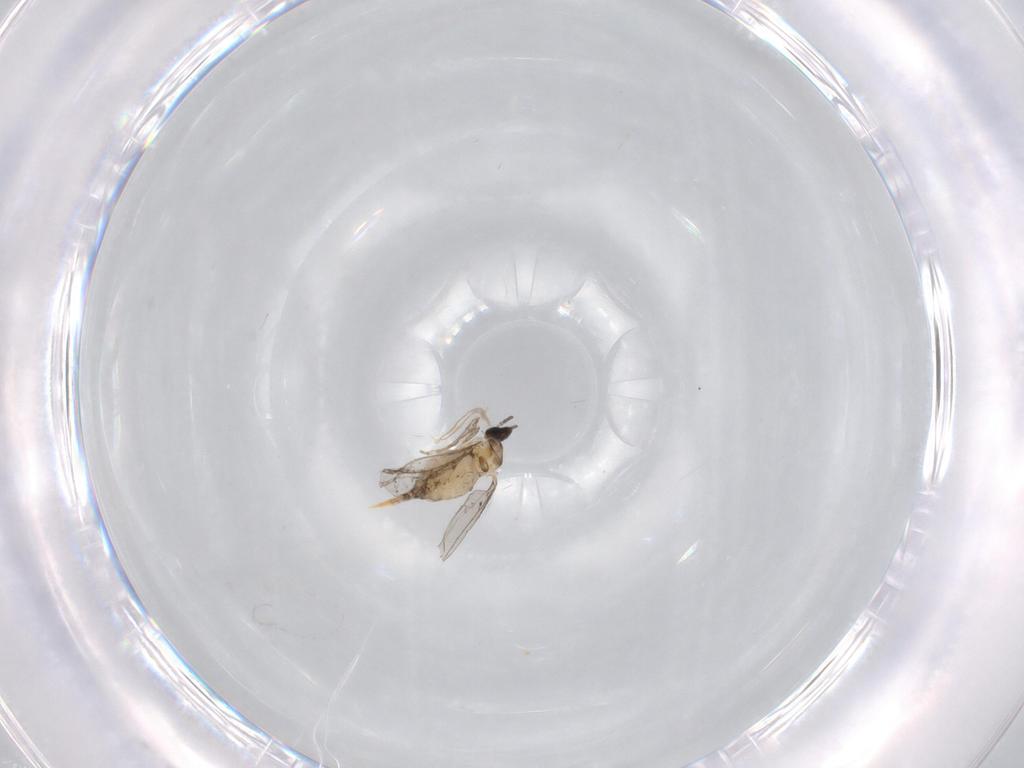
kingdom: Animalia
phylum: Arthropoda
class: Insecta
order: Diptera
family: Cecidomyiidae
